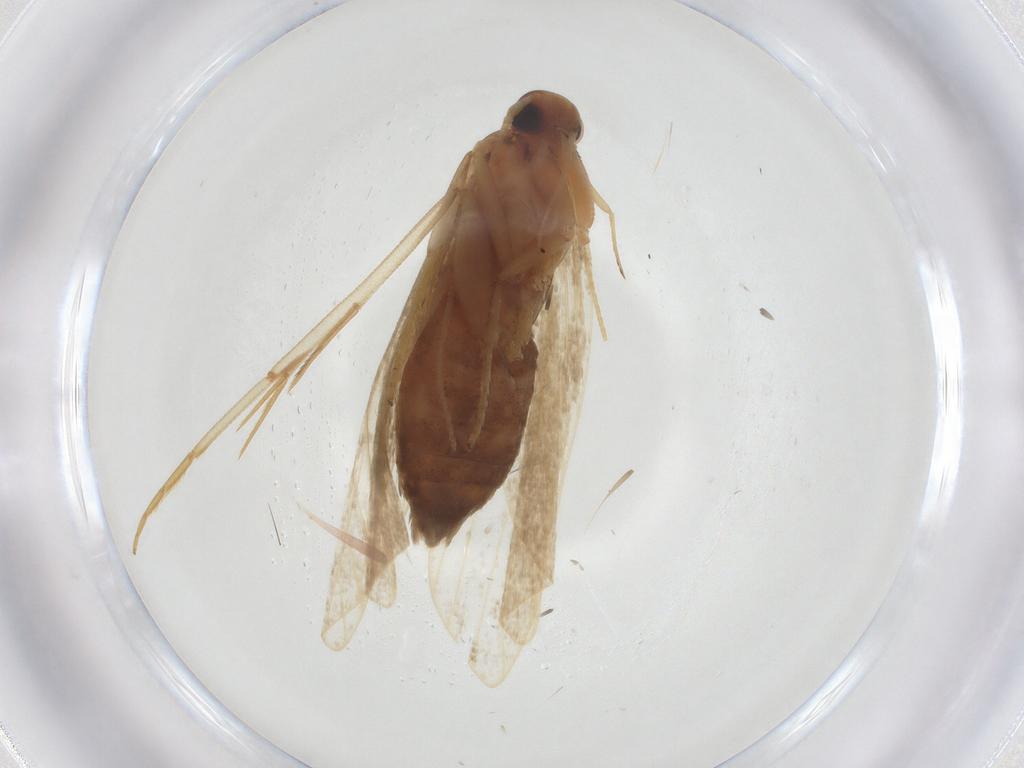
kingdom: Animalia
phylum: Arthropoda
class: Insecta
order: Lepidoptera
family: Lecithoceridae
